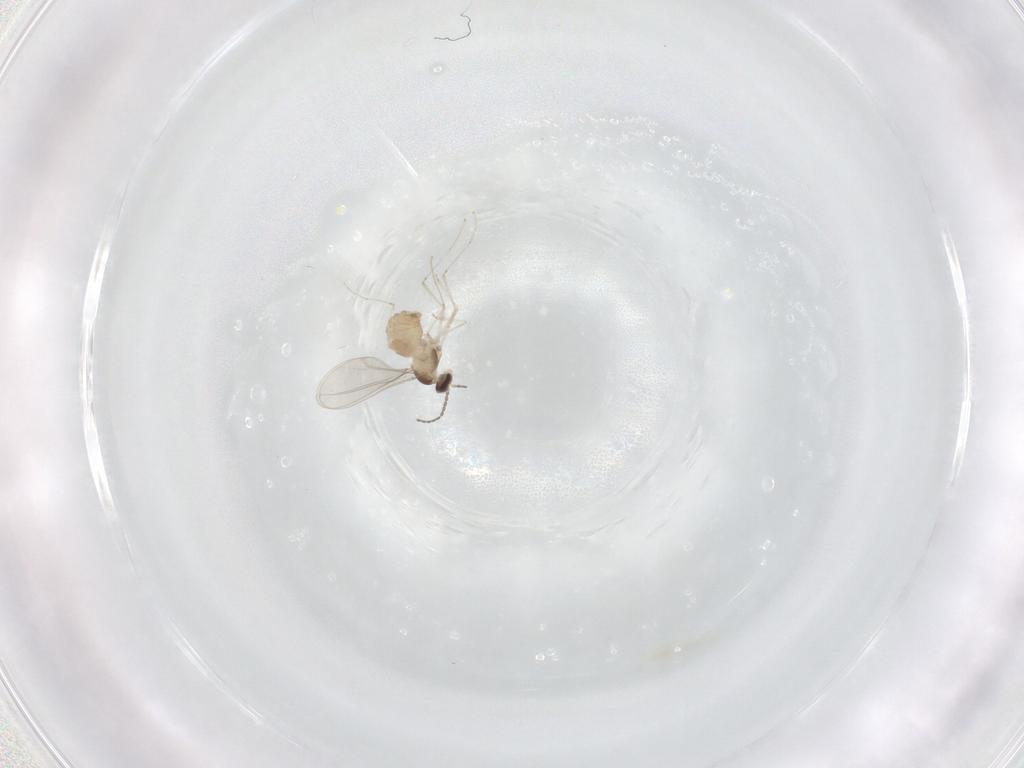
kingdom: Animalia
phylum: Arthropoda
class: Insecta
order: Diptera
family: Cecidomyiidae
